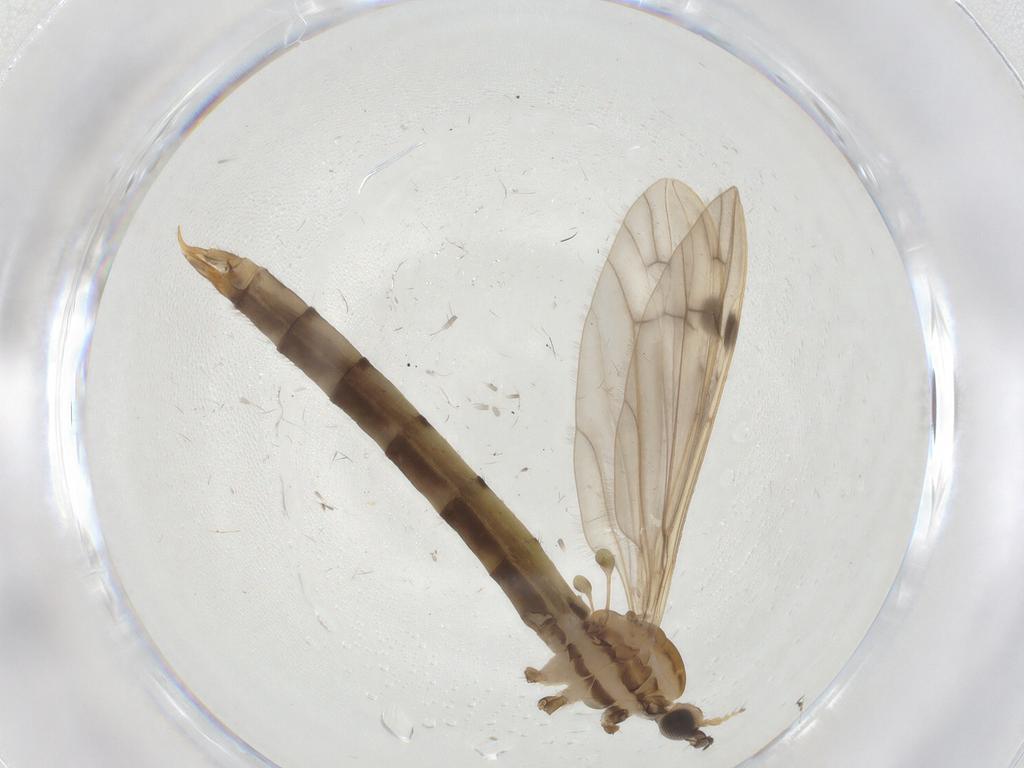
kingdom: Animalia
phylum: Arthropoda
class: Insecta
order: Diptera
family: Limoniidae
